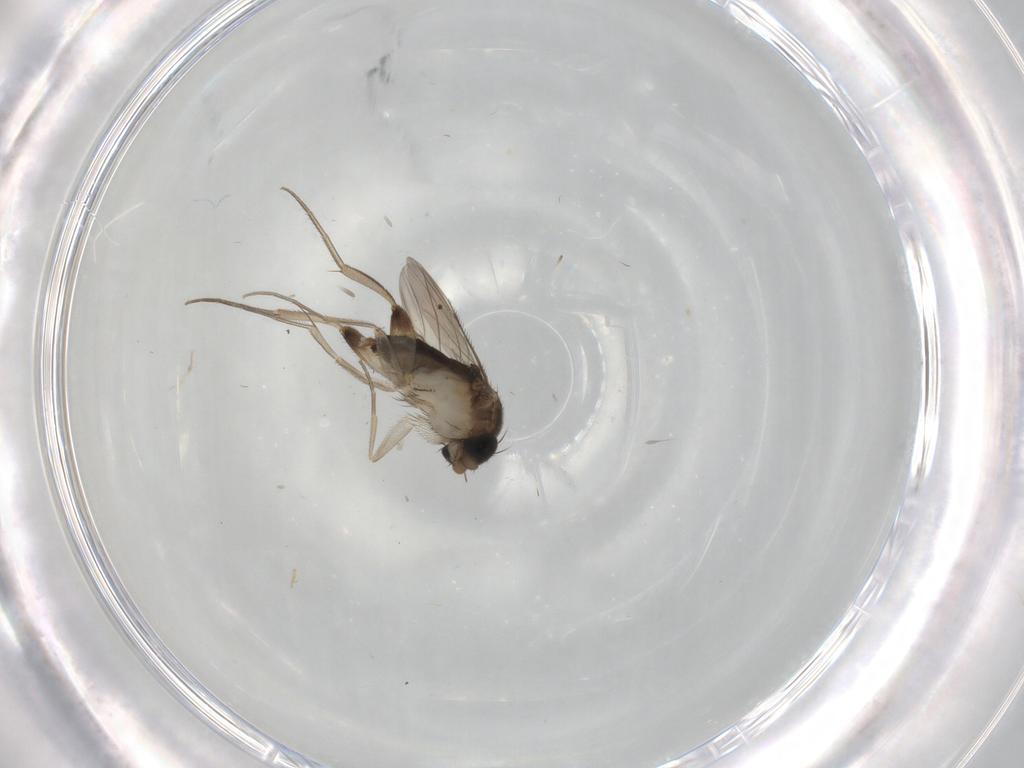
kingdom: Animalia
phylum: Arthropoda
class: Insecta
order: Diptera
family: Phoridae
